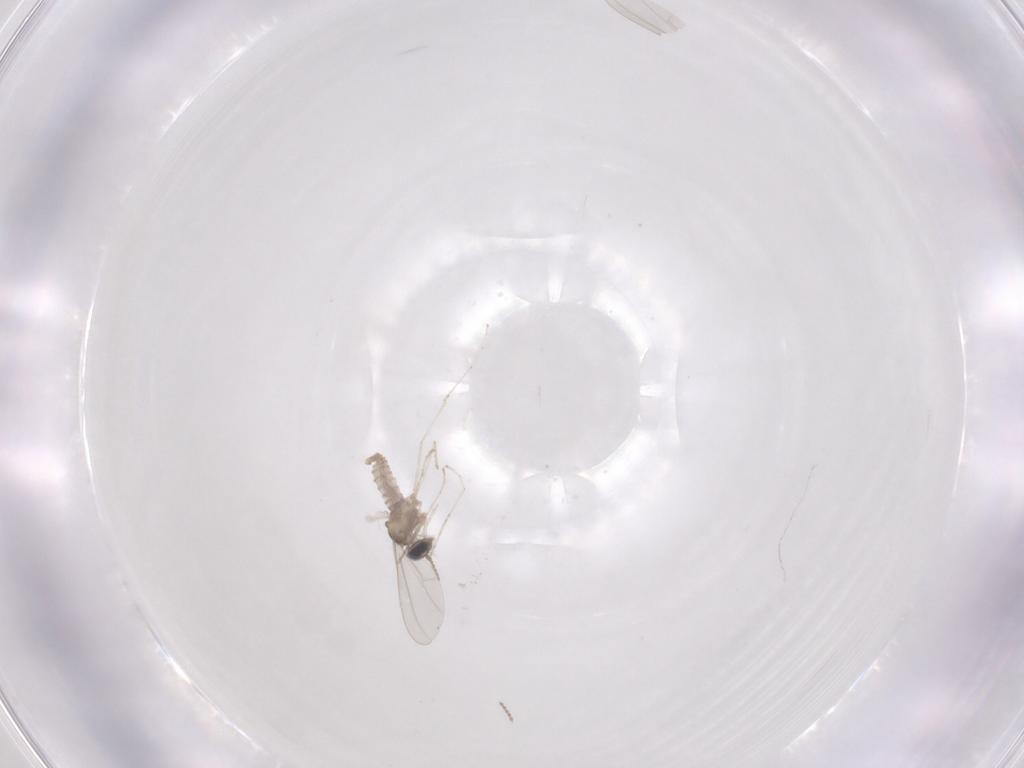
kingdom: Animalia
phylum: Arthropoda
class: Insecta
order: Diptera
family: Cecidomyiidae
